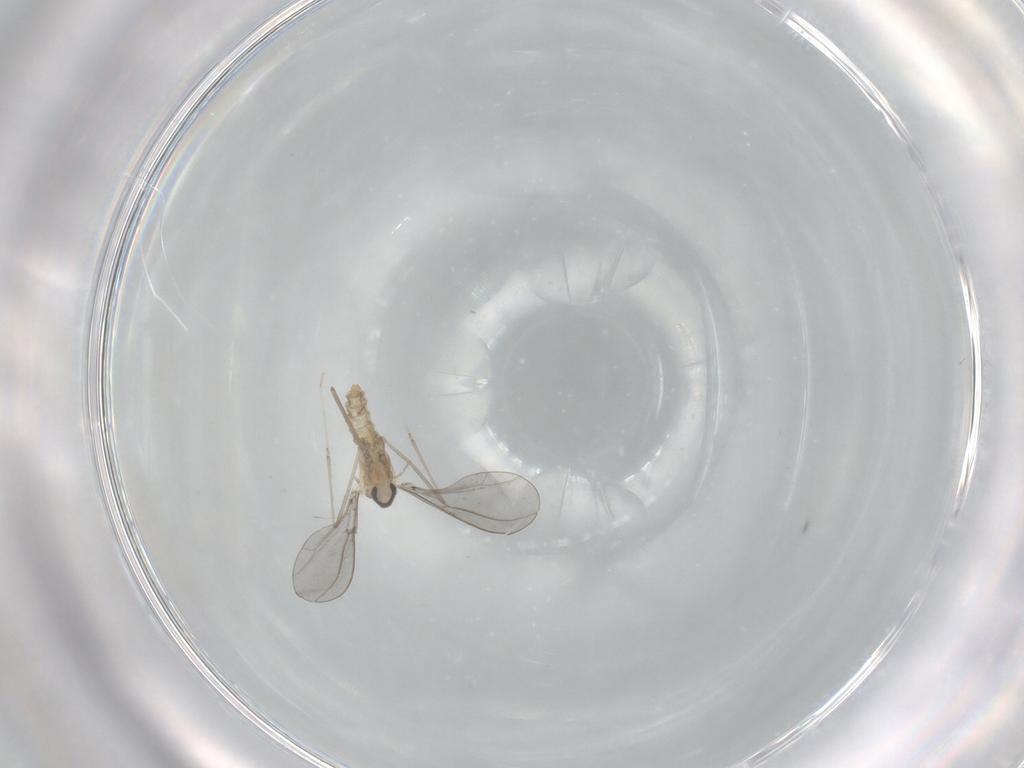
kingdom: Animalia
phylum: Arthropoda
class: Insecta
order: Diptera
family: Cecidomyiidae
